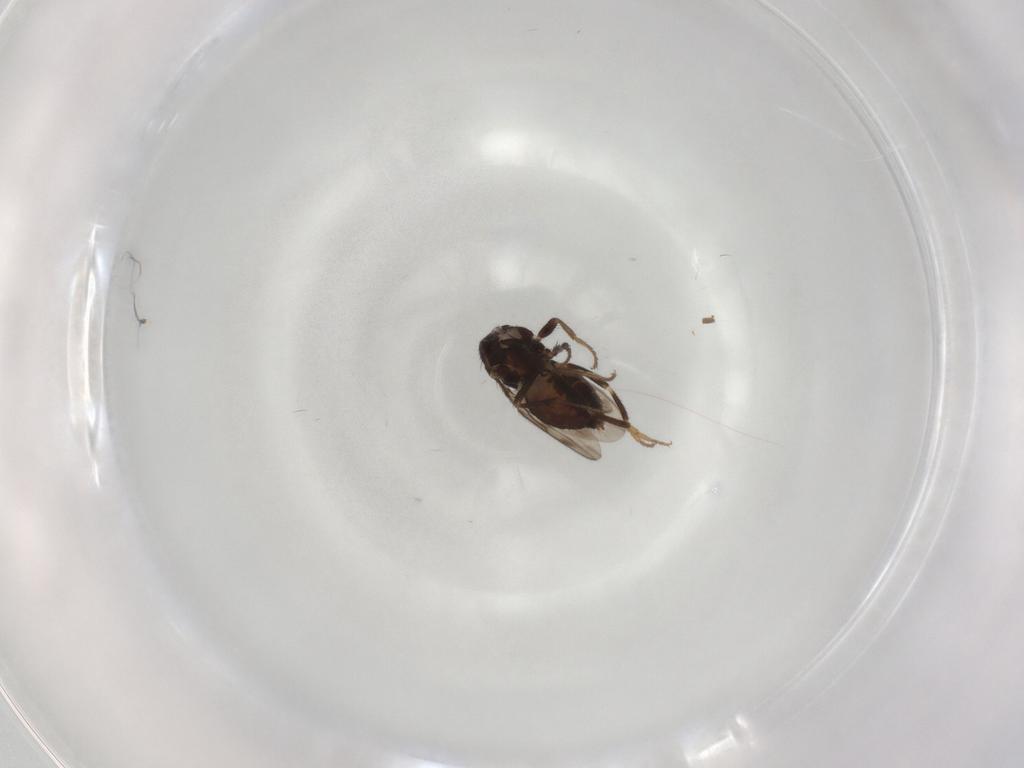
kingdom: Animalia
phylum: Arthropoda
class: Insecta
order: Diptera
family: Sphaeroceridae
